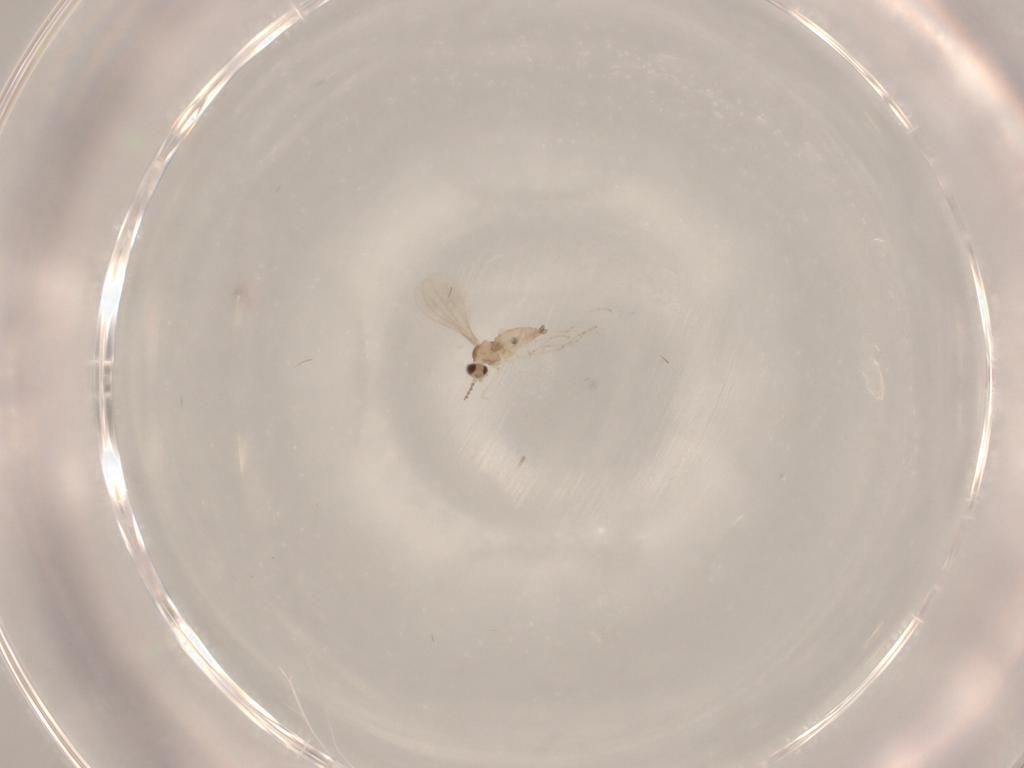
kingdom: Animalia
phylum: Arthropoda
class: Insecta
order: Diptera
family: Cecidomyiidae
